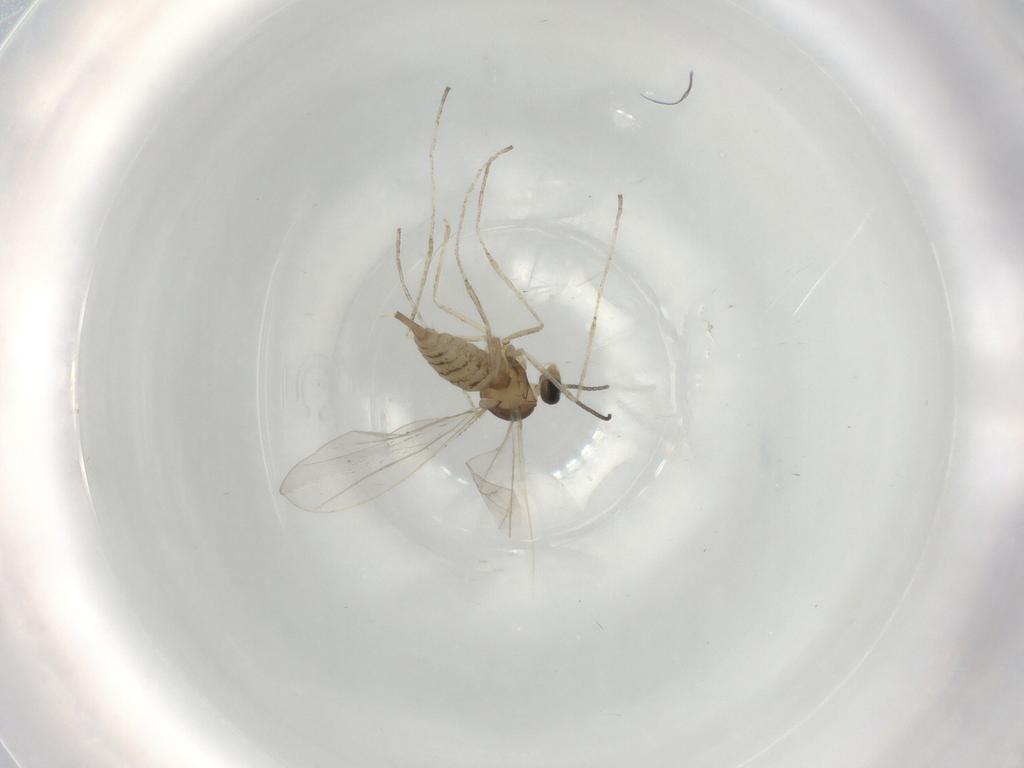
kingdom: Animalia
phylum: Arthropoda
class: Insecta
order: Diptera
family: Cecidomyiidae
